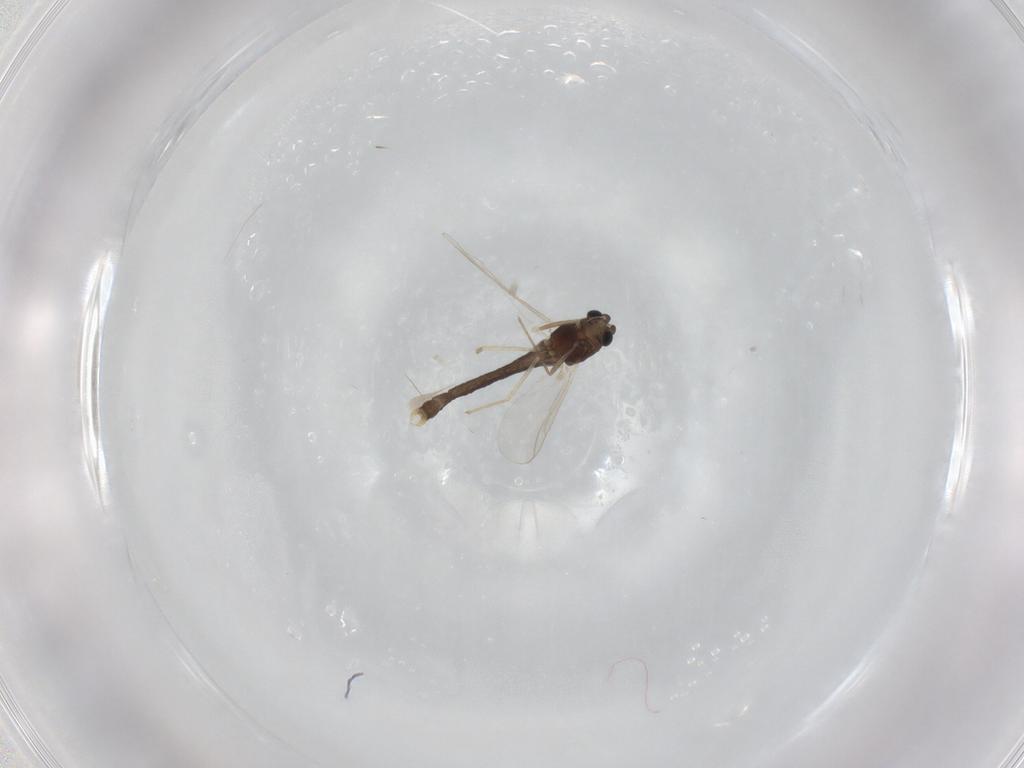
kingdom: Animalia
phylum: Arthropoda
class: Insecta
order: Diptera
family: Chironomidae
